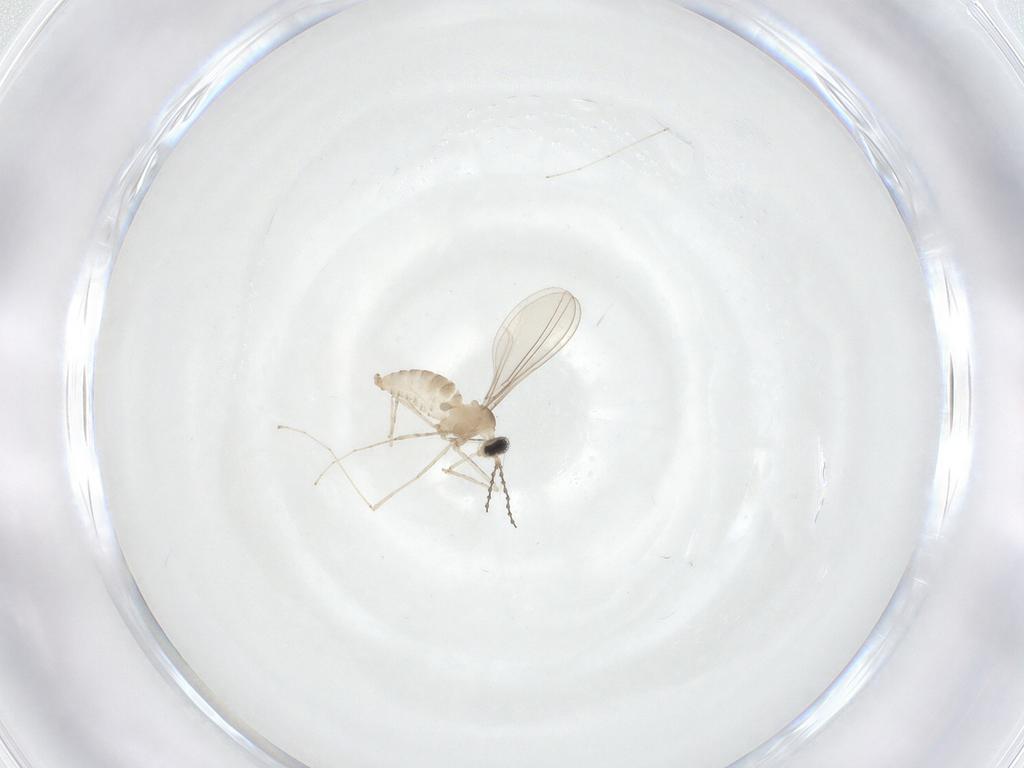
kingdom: Animalia
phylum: Arthropoda
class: Insecta
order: Diptera
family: Cecidomyiidae
